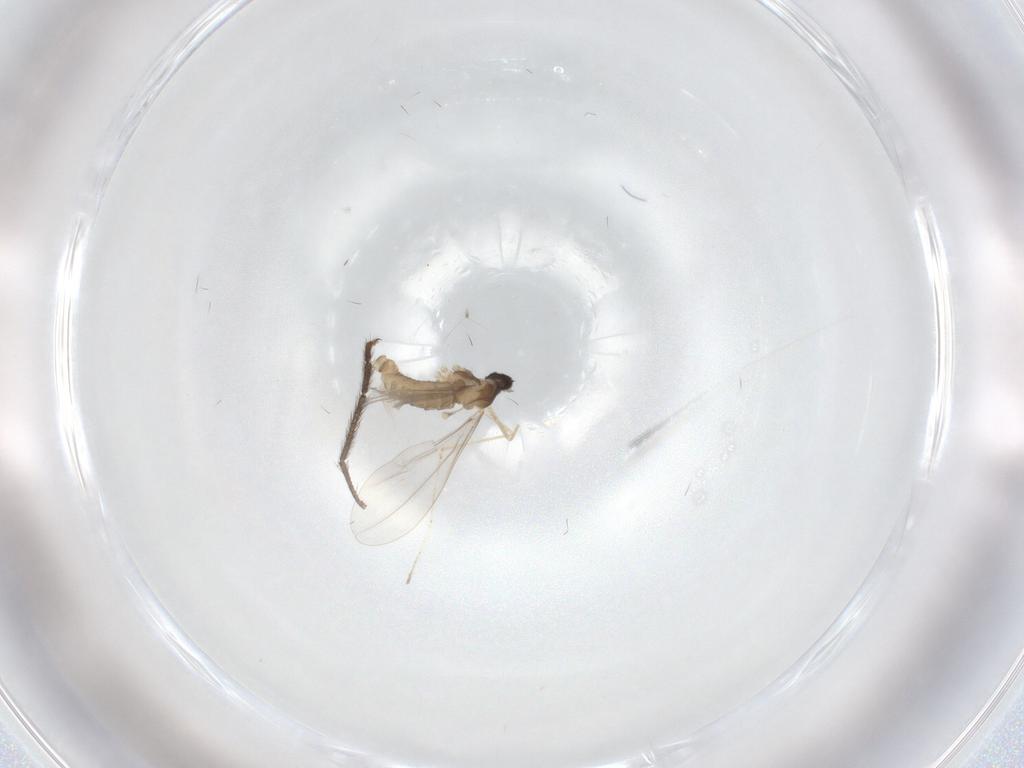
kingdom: Animalia
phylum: Arthropoda
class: Insecta
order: Diptera
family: Cecidomyiidae
